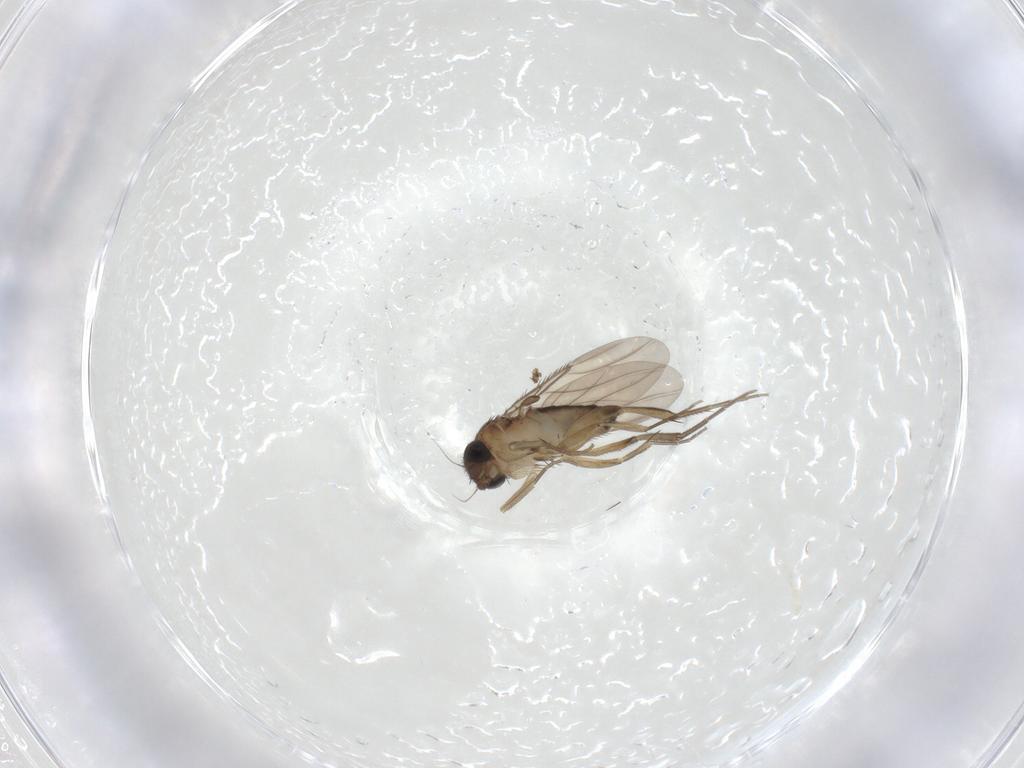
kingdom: Animalia
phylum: Arthropoda
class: Insecta
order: Diptera
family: Phoridae
